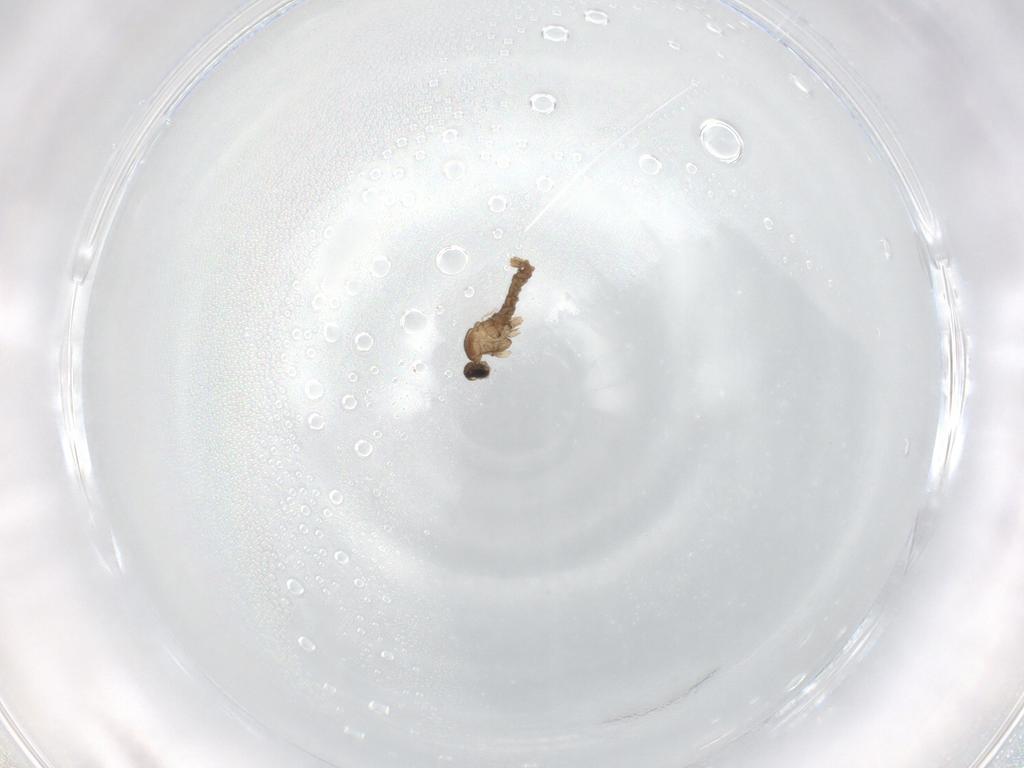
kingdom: Animalia
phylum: Arthropoda
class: Insecta
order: Diptera
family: Cecidomyiidae
